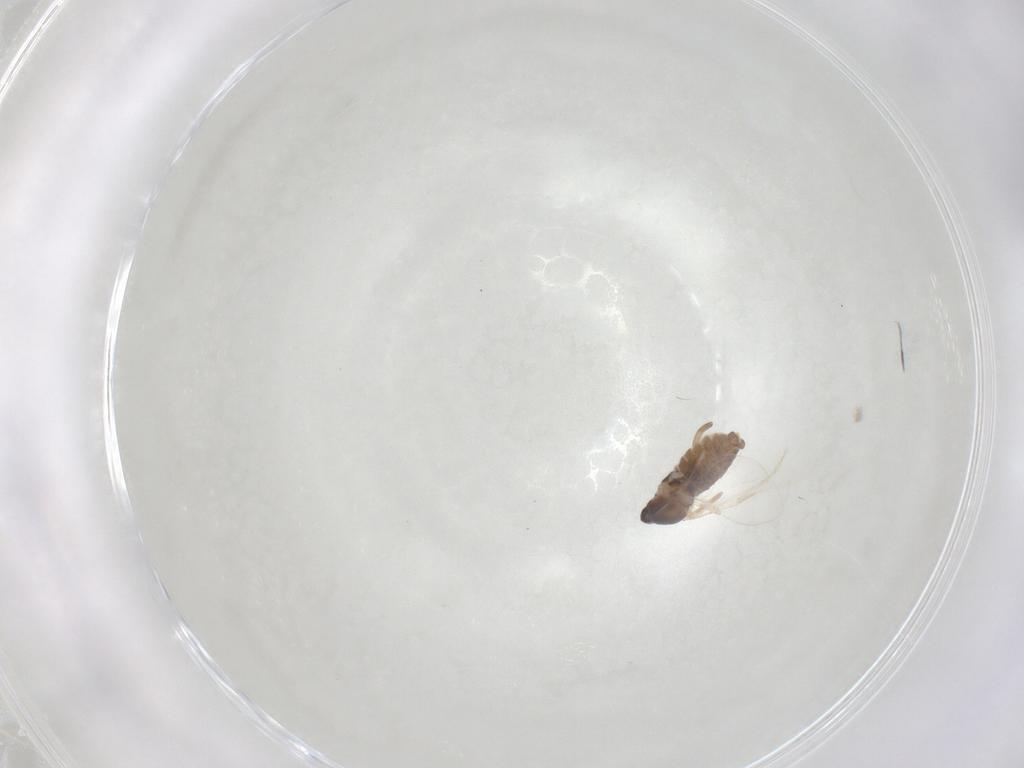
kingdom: Animalia
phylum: Arthropoda
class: Insecta
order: Diptera
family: Cecidomyiidae
